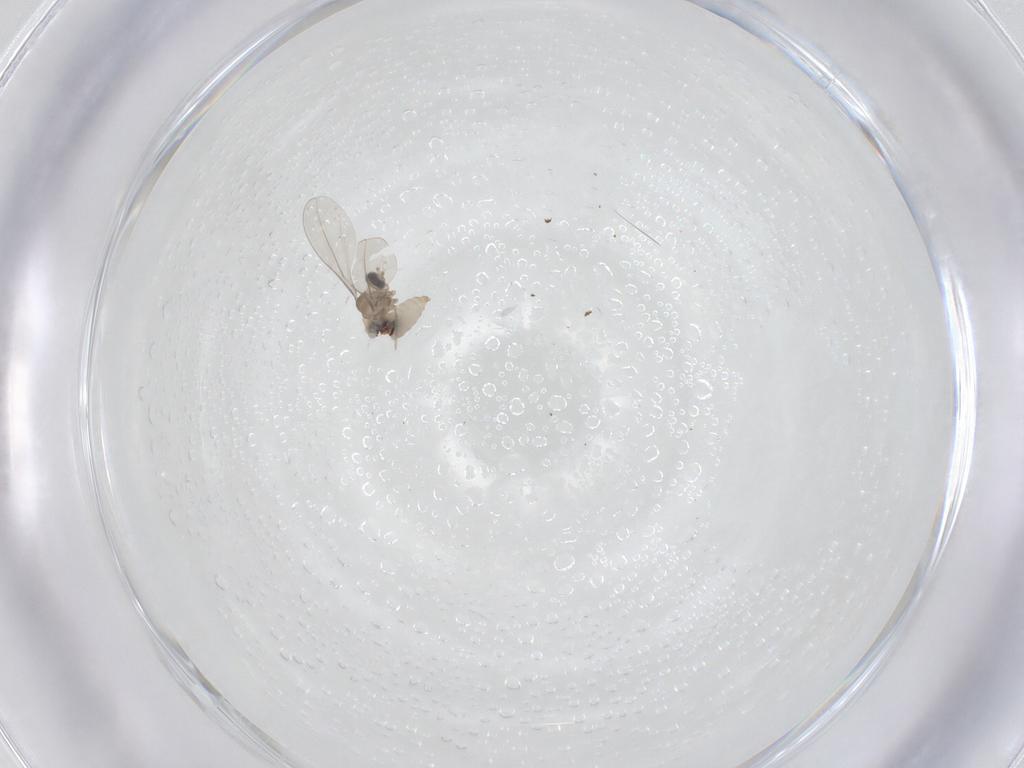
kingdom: Animalia
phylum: Arthropoda
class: Insecta
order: Diptera
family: Cecidomyiidae
